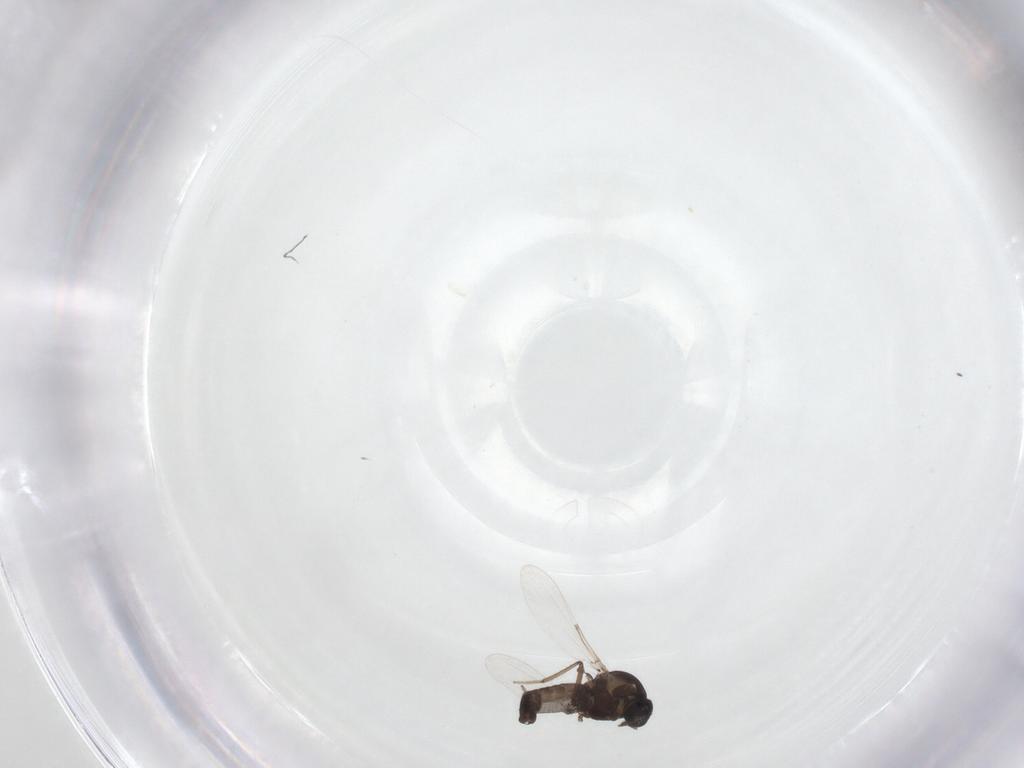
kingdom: Animalia
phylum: Arthropoda
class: Insecta
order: Diptera
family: Ceratopogonidae
